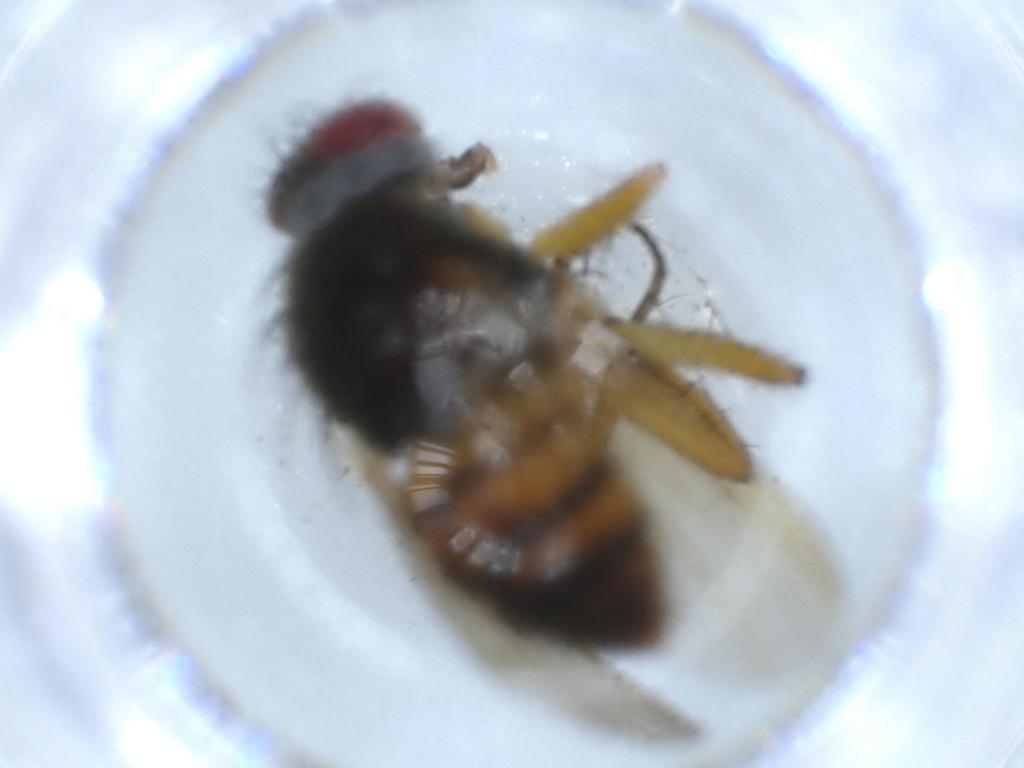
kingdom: Animalia
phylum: Arthropoda
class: Insecta
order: Diptera
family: Muscidae
